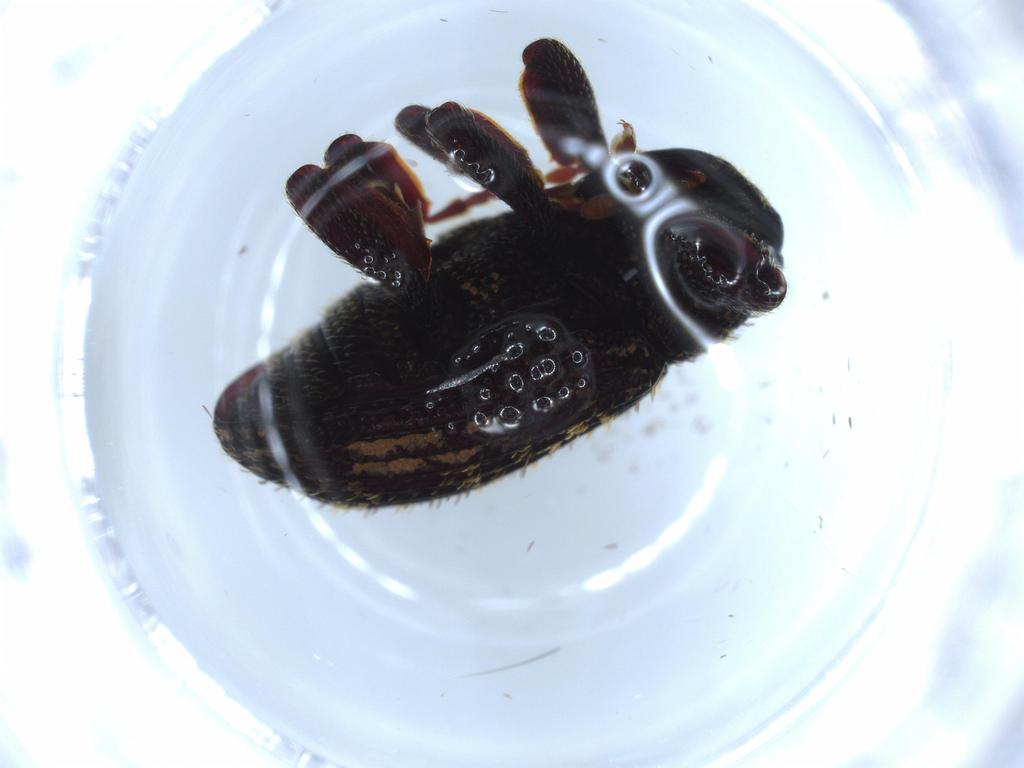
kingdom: Animalia
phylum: Arthropoda
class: Insecta
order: Coleoptera
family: Erotylidae
